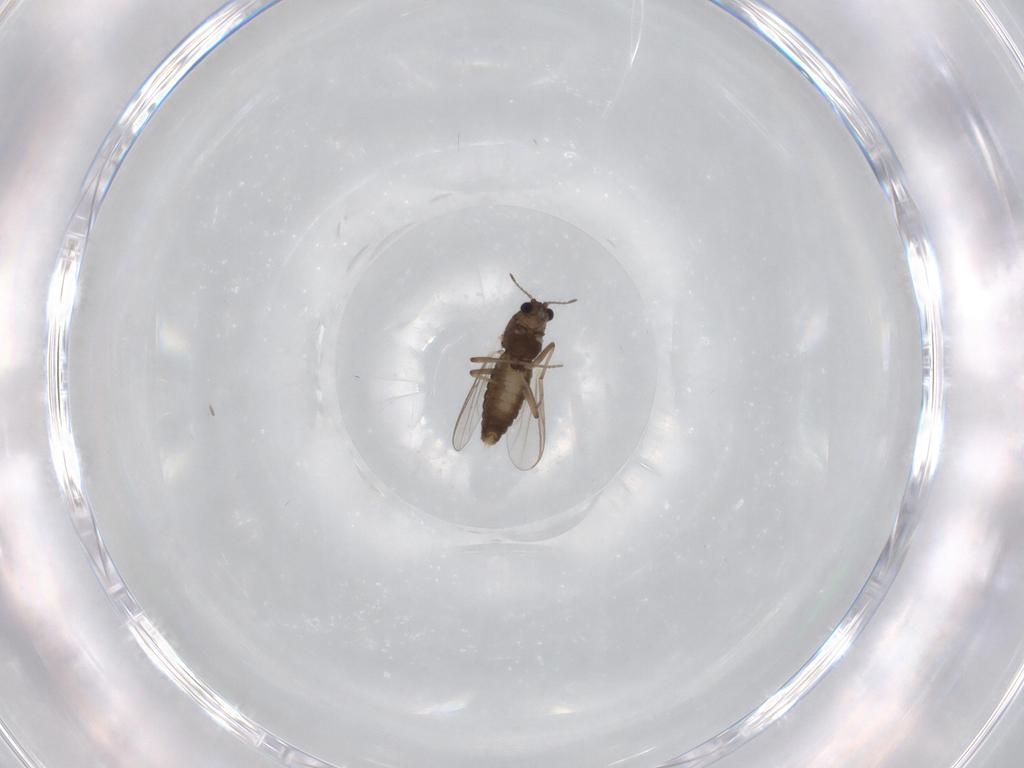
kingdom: Animalia
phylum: Arthropoda
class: Insecta
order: Diptera
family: Chironomidae
